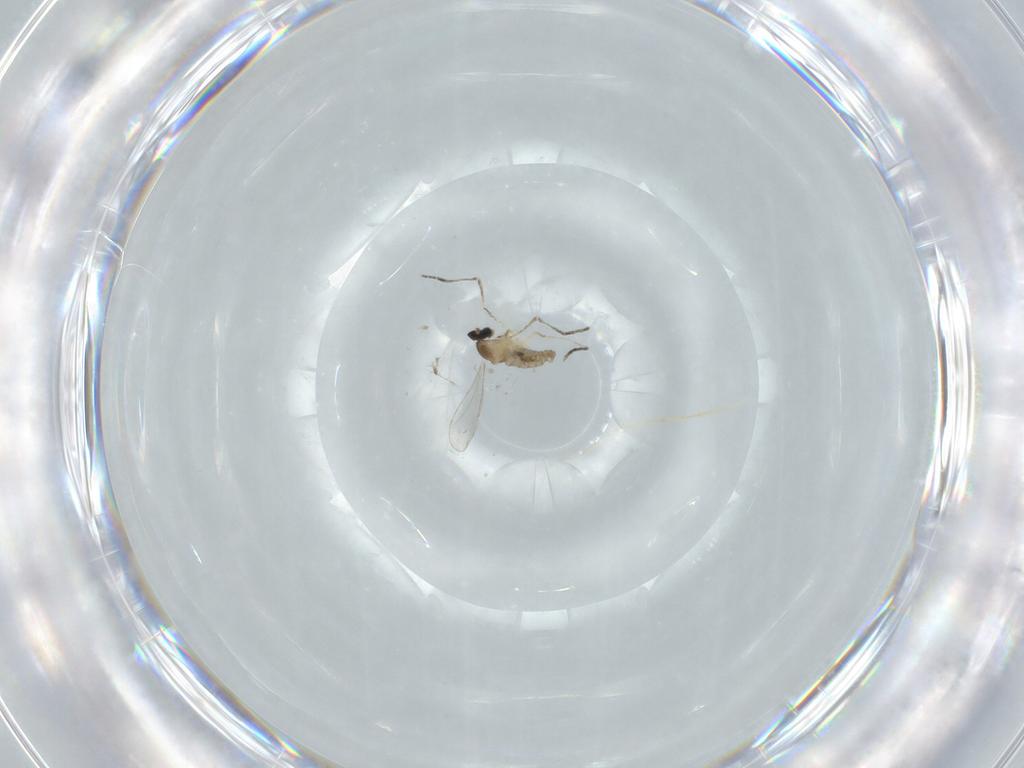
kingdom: Animalia
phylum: Arthropoda
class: Insecta
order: Diptera
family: Cecidomyiidae
